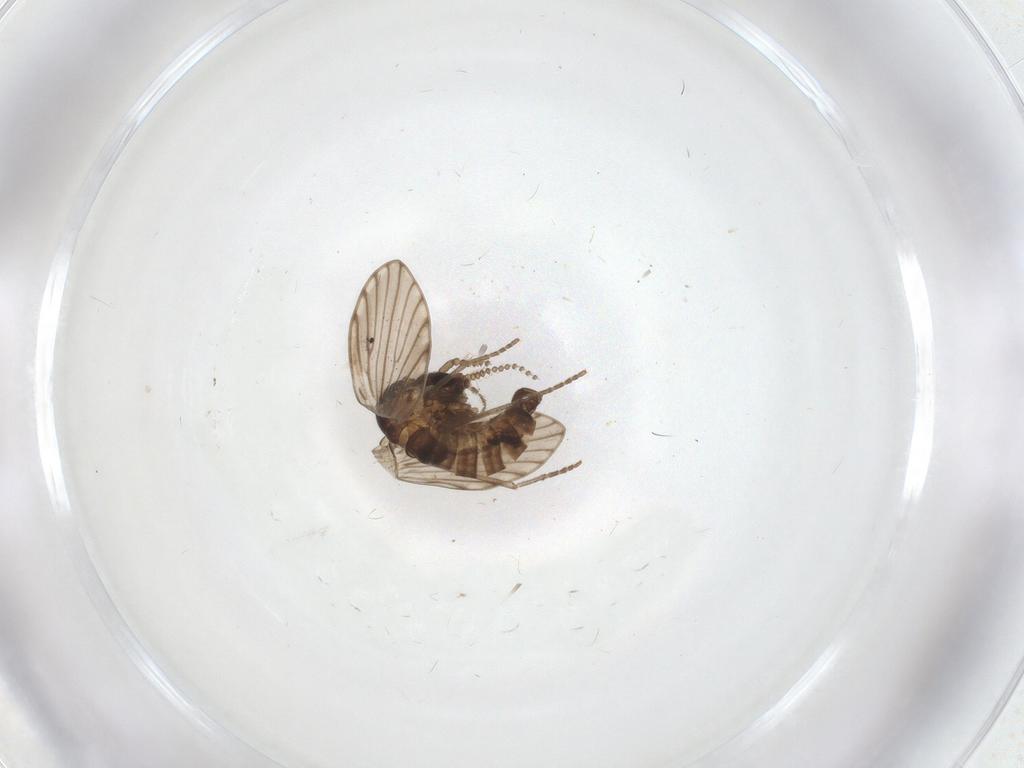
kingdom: Animalia
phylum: Arthropoda
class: Insecta
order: Diptera
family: Psychodidae
